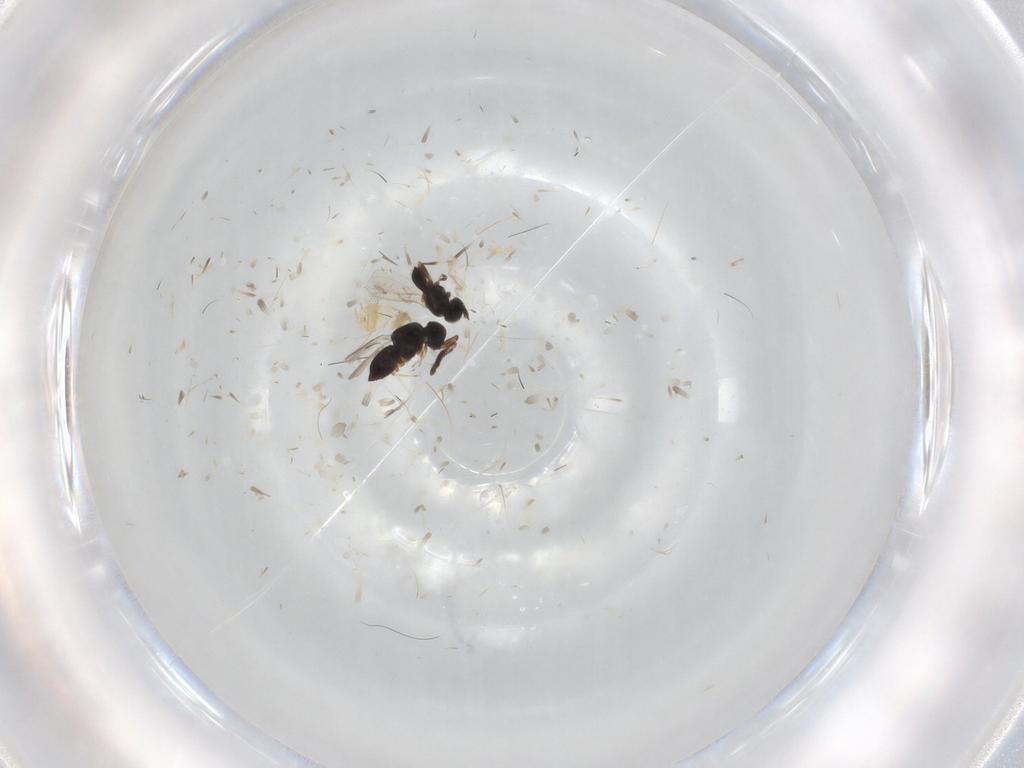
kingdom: Animalia
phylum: Arthropoda
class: Insecta
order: Hymenoptera
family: Scelionidae
